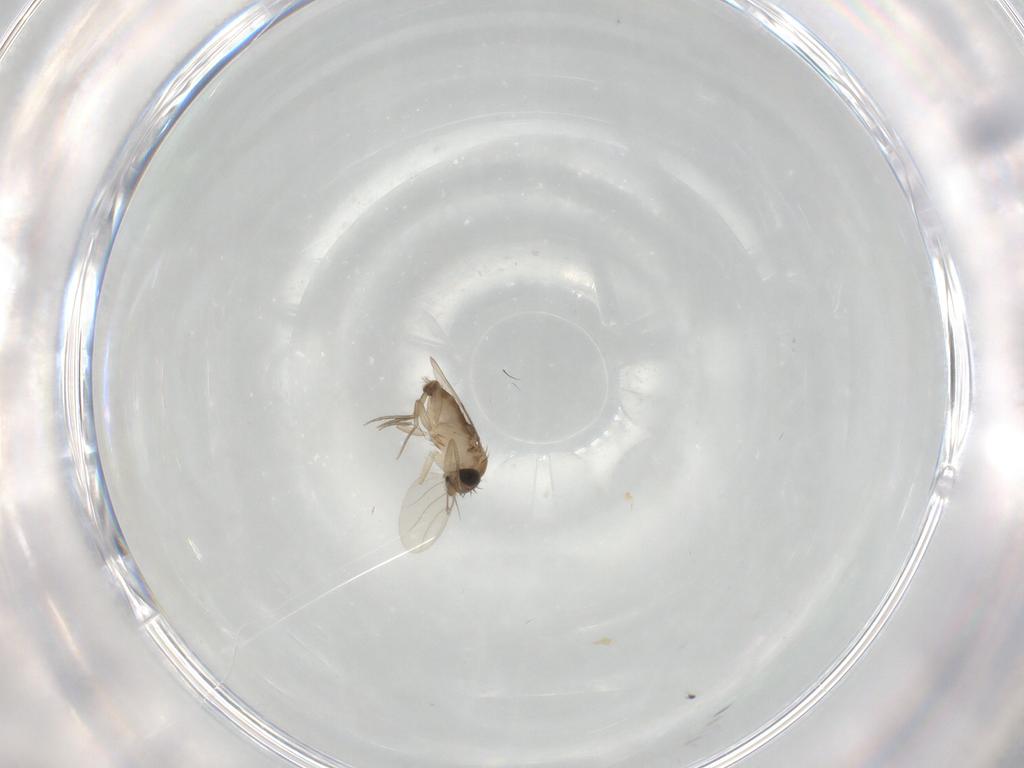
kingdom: Animalia
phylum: Arthropoda
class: Insecta
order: Diptera
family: Phoridae
